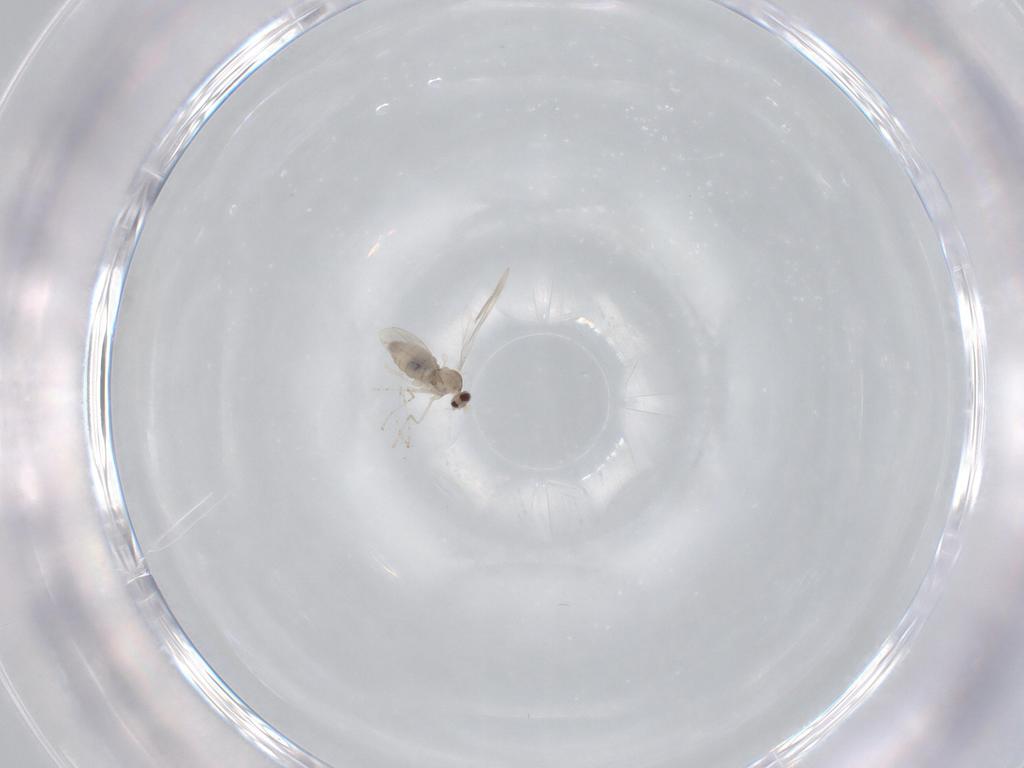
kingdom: Animalia
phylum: Arthropoda
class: Insecta
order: Diptera
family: Cecidomyiidae
